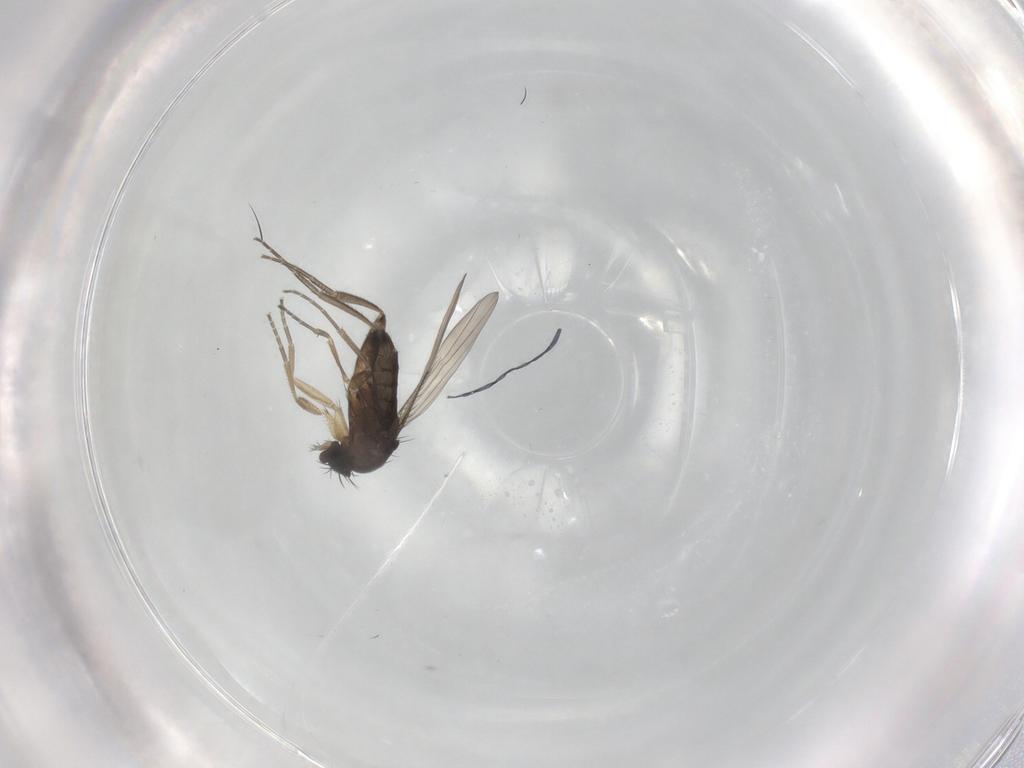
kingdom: Animalia
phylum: Arthropoda
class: Insecta
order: Diptera
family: Phoridae
